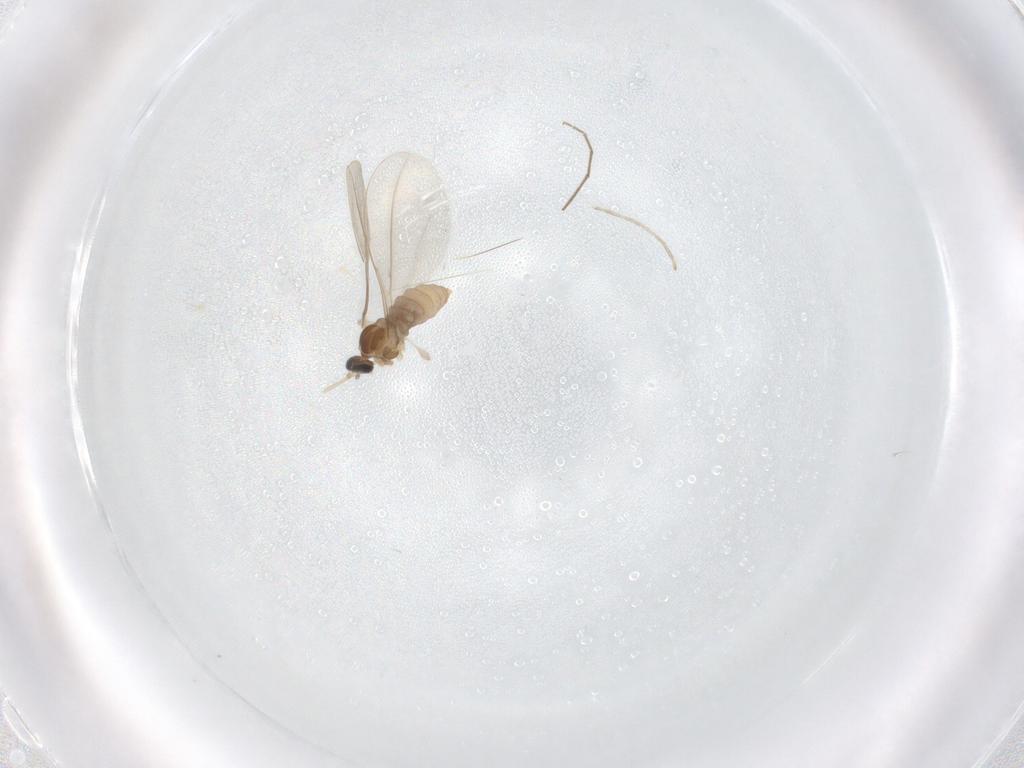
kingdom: Animalia
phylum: Arthropoda
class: Insecta
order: Diptera
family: Cecidomyiidae
